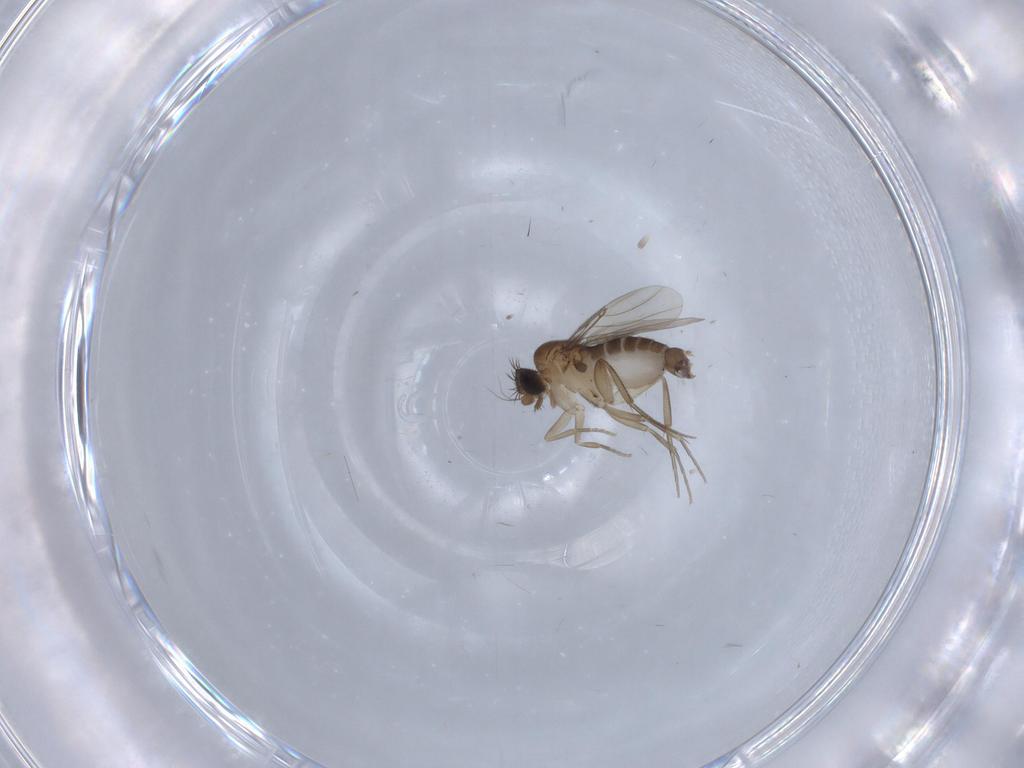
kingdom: Animalia
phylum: Arthropoda
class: Insecta
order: Diptera
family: Phoridae
